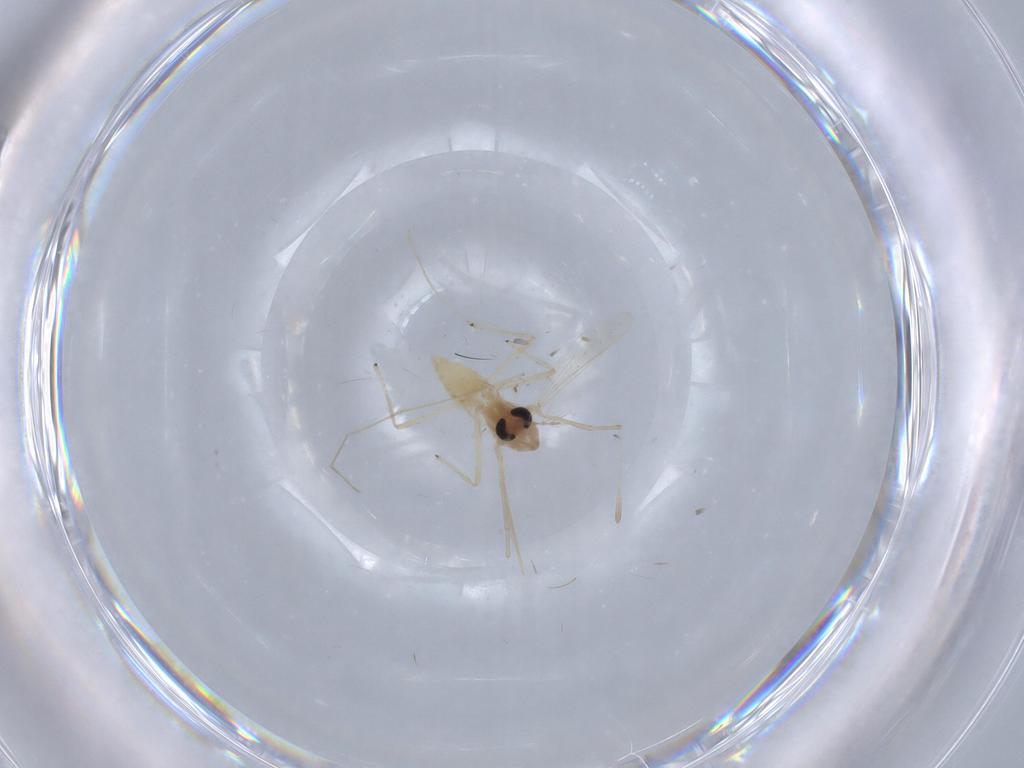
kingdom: Animalia
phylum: Arthropoda
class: Insecta
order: Diptera
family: Chironomidae
